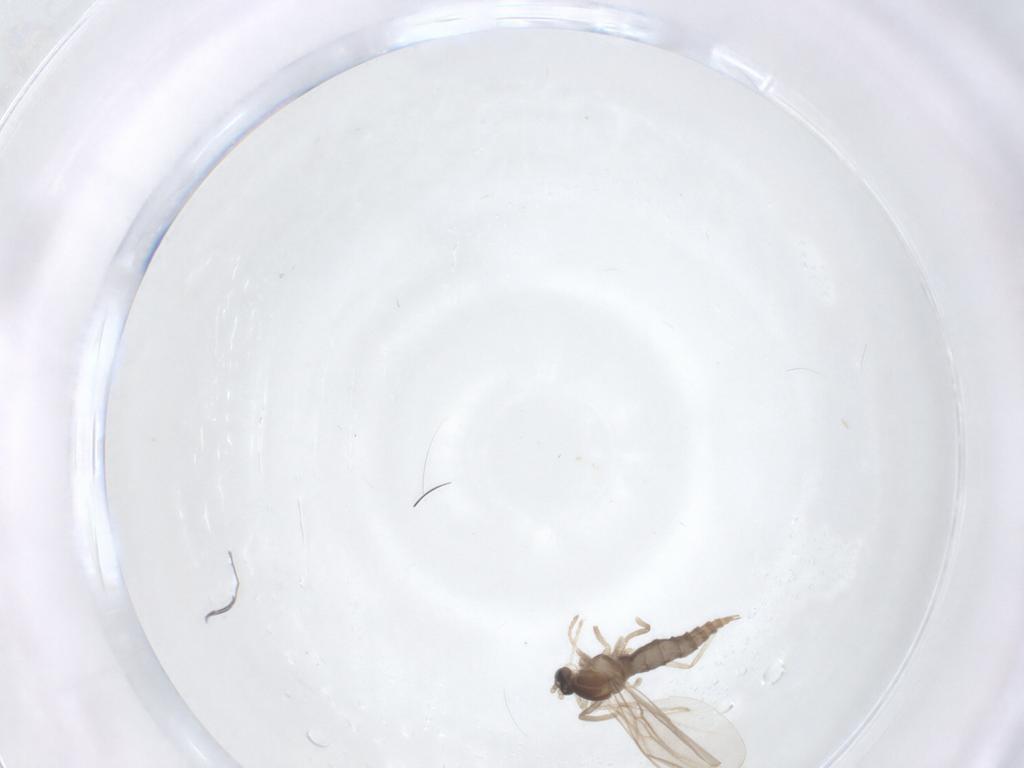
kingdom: Animalia
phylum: Arthropoda
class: Insecta
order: Diptera
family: Cecidomyiidae
